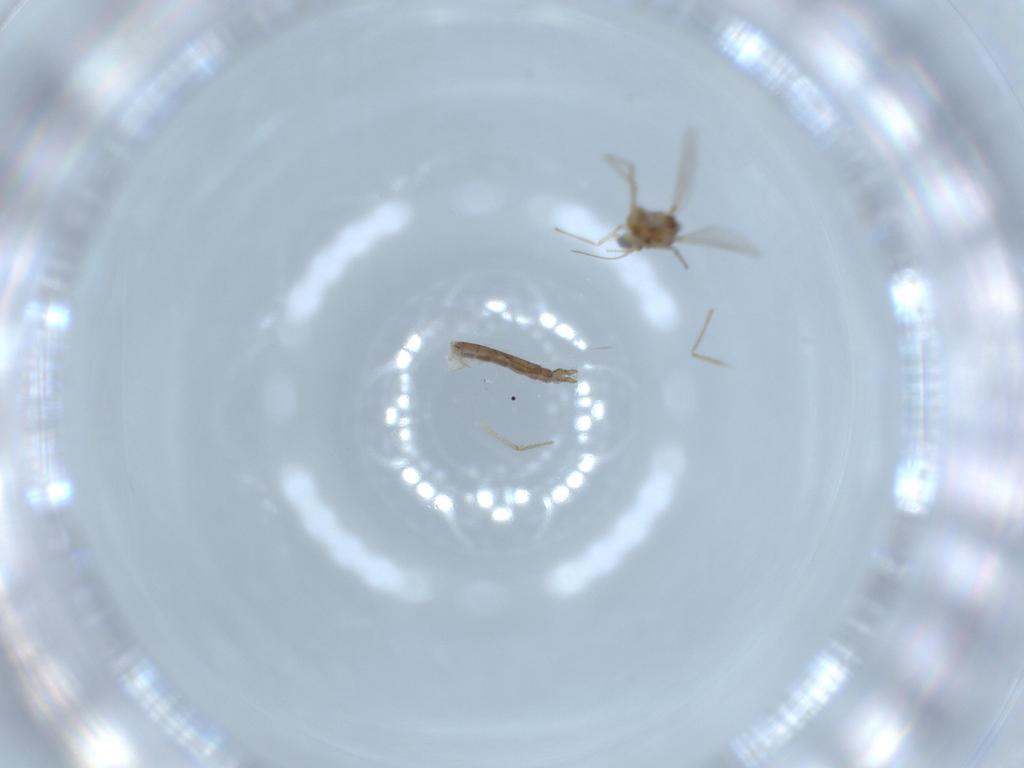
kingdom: Animalia
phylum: Arthropoda
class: Insecta
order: Diptera
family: Chironomidae
